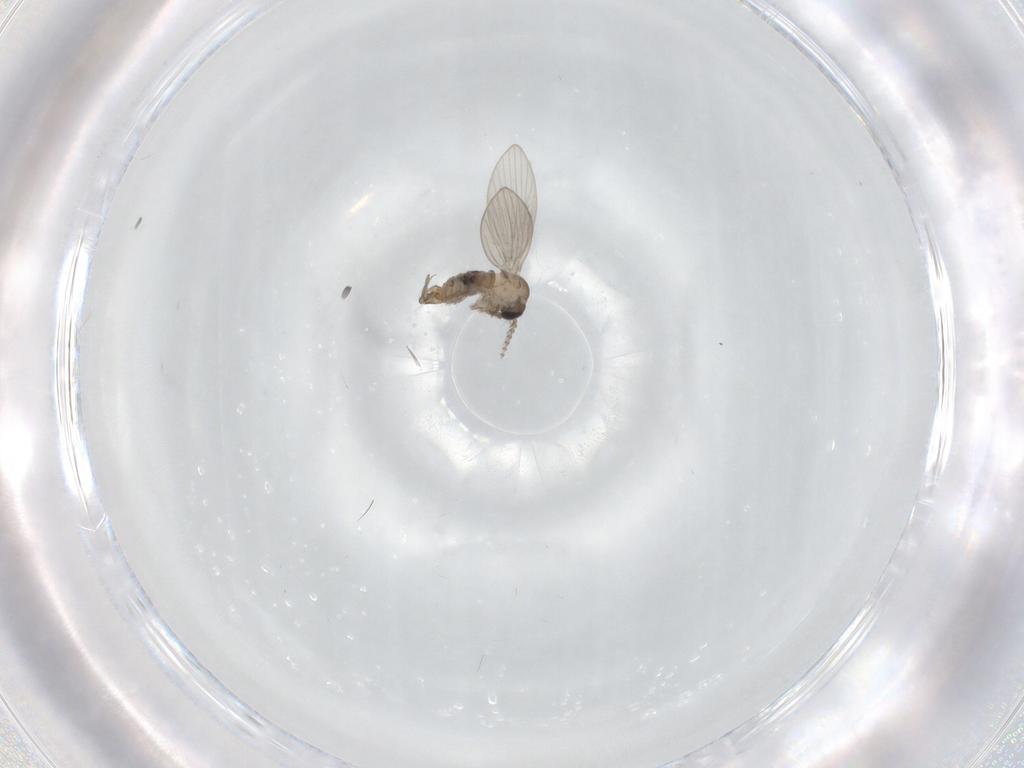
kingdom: Animalia
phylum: Arthropoda
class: Insecta
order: Diptera
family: Psychodidae
